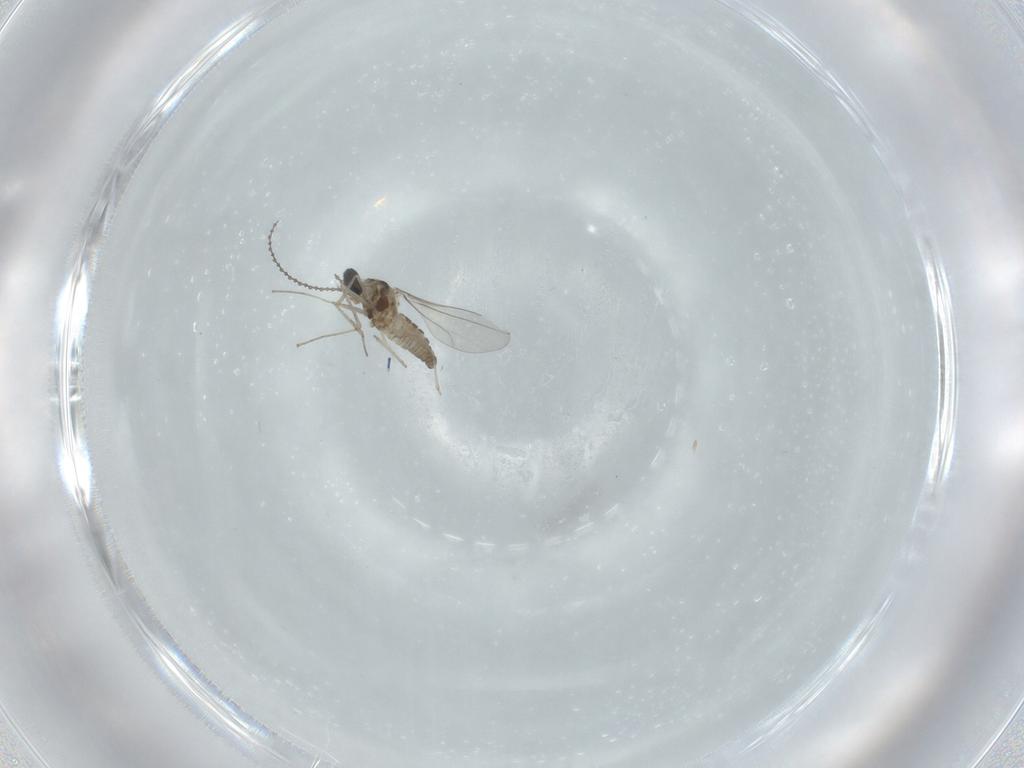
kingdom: Animalia
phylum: Arthropoda
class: Insecta
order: Diptera
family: Cecidomyiidae
